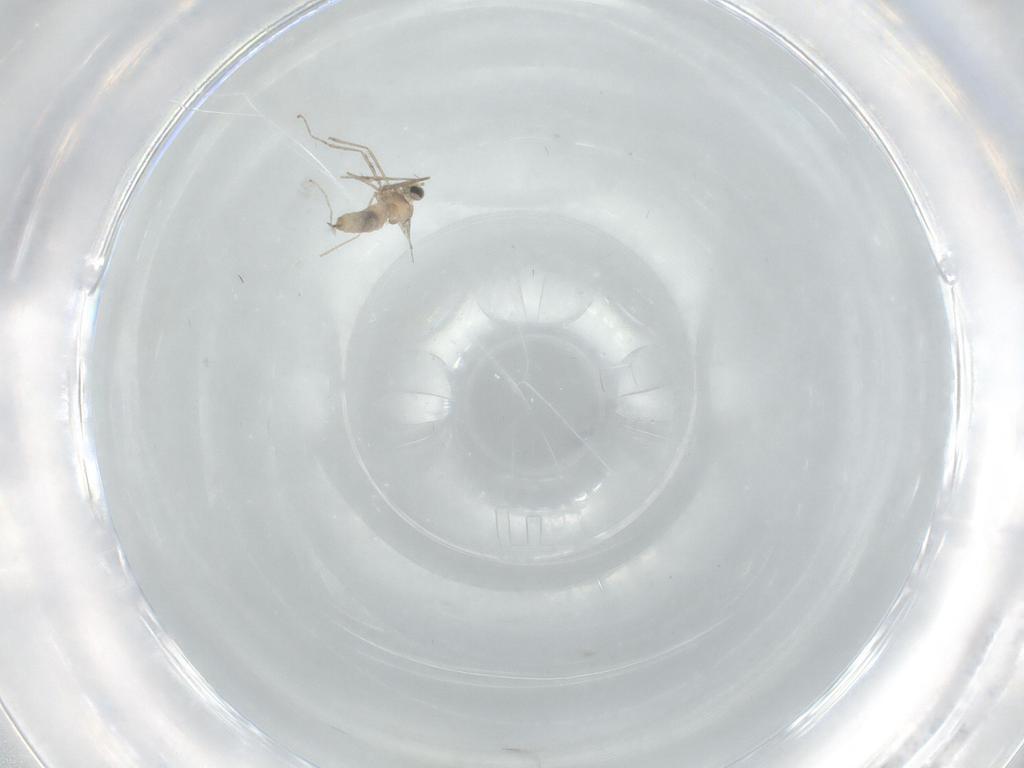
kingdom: Animalia
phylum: Arthropoda
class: Insecta
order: Diptera
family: Cecidomyiidae
